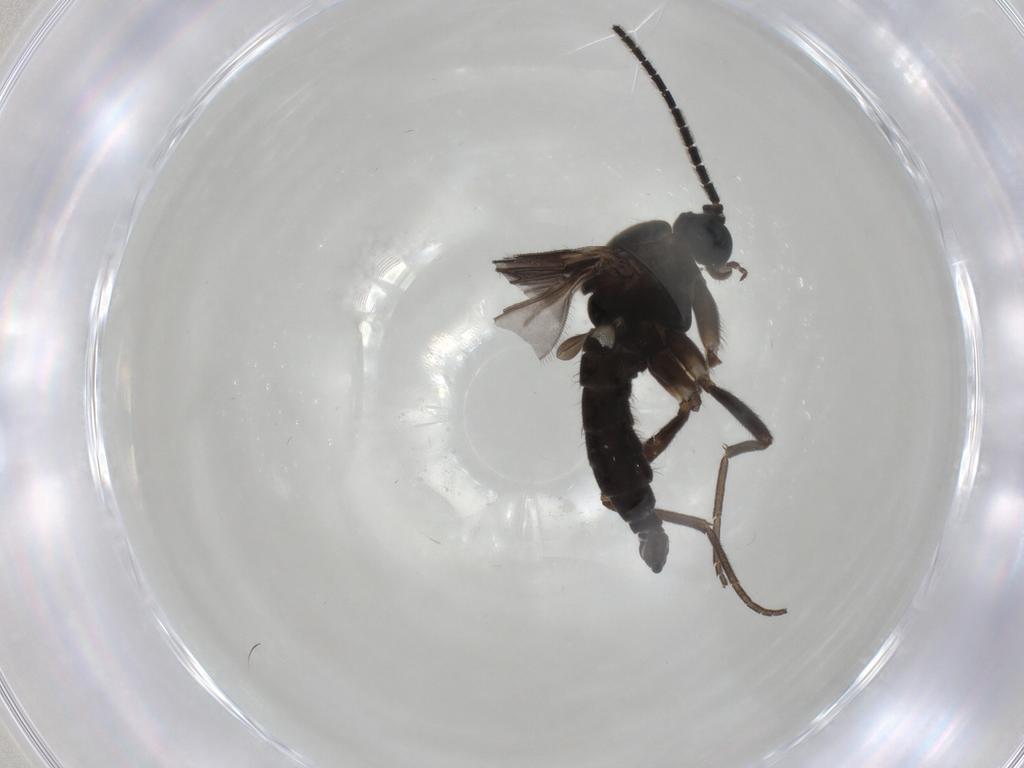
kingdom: Animalia
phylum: Arthropoda
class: Insecta
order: Diptera
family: Sciaridae
